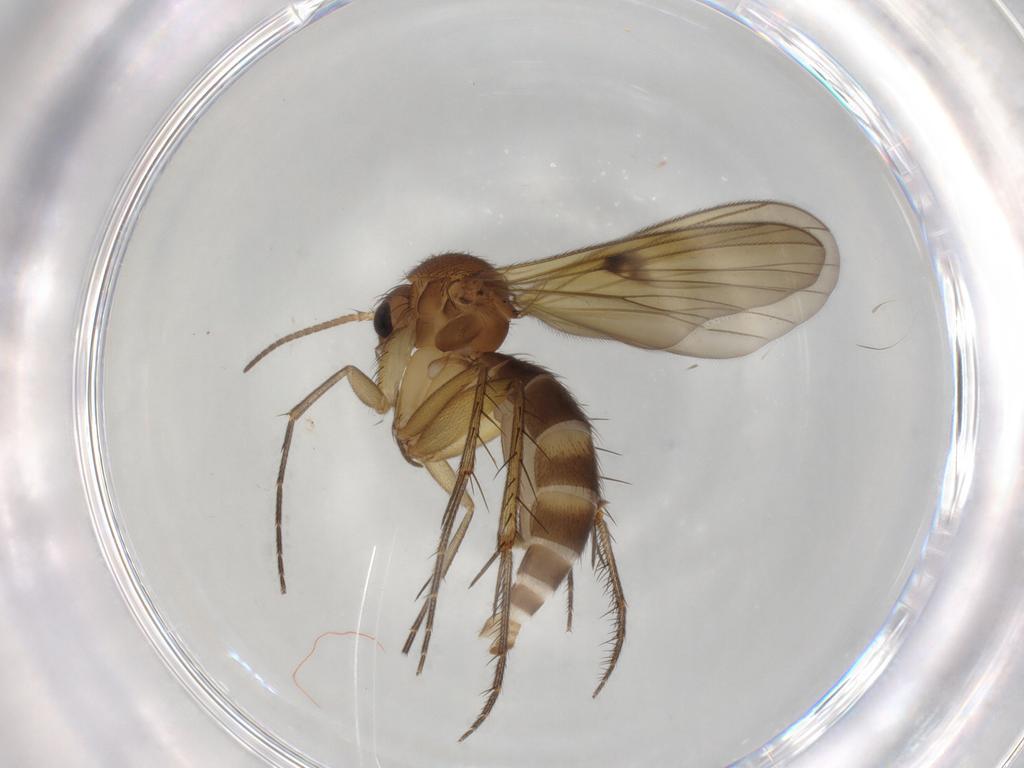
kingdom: Animalia
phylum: Arthropoda
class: Insecta
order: Diptera
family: Mycetophilidae
